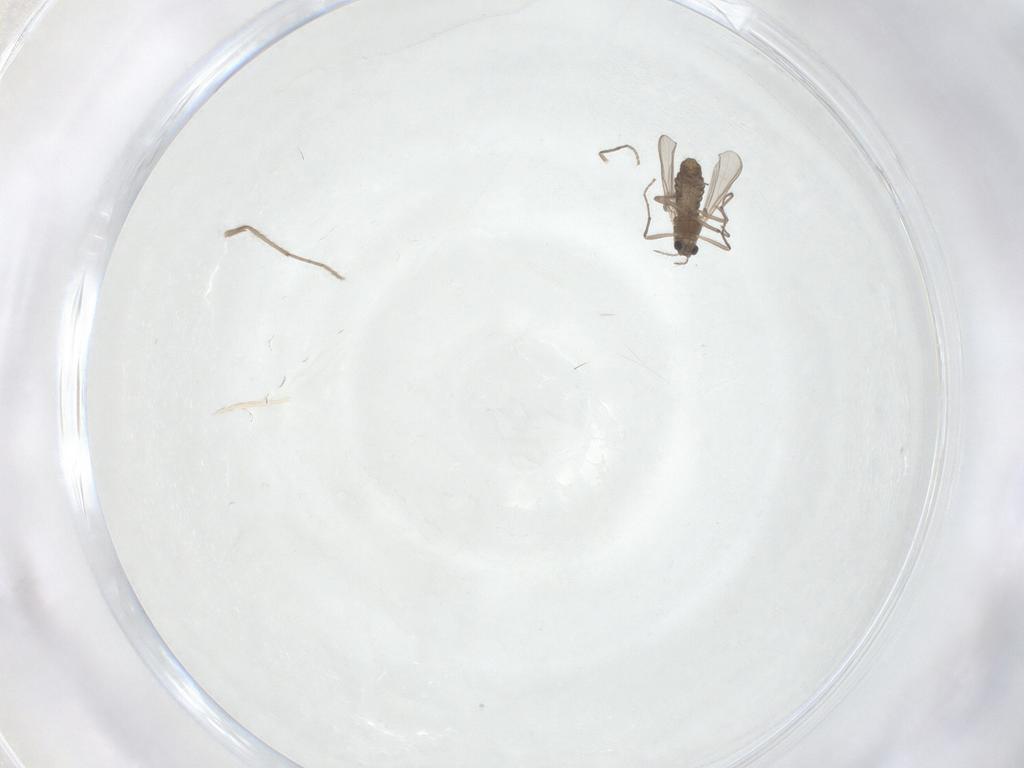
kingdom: Animalia
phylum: Arthropoda
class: Insecta
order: Diptera
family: Chironomidae
